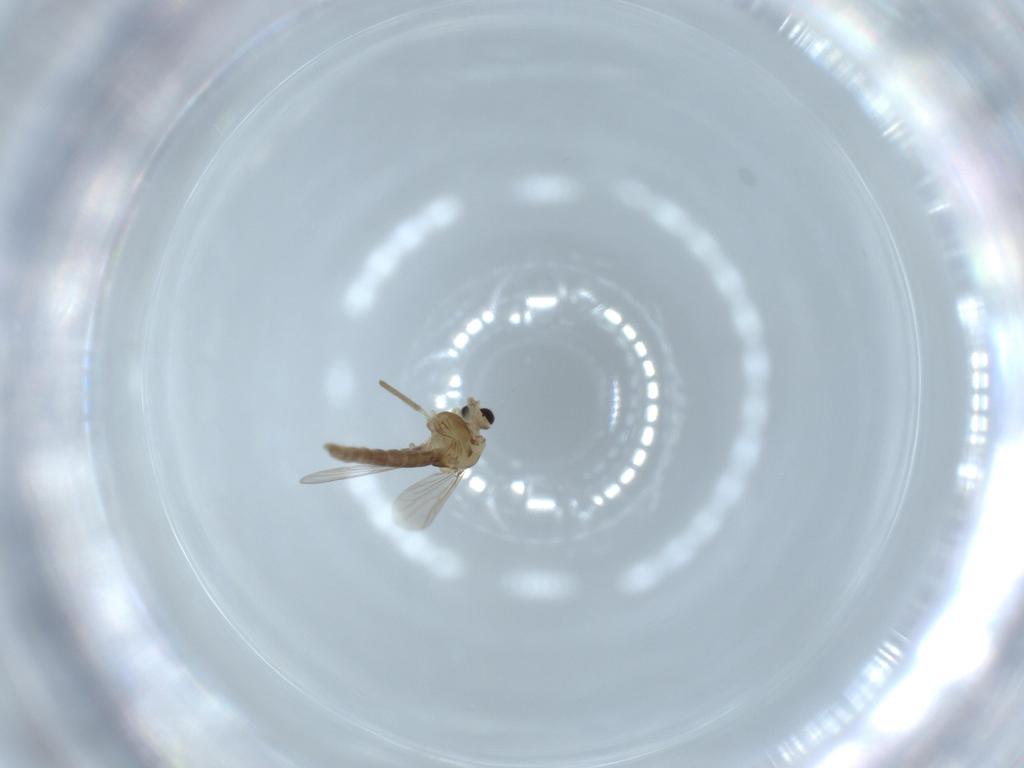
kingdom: Animalia
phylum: Arthropoda
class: Insecta
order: Diptera
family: Chironomidae
